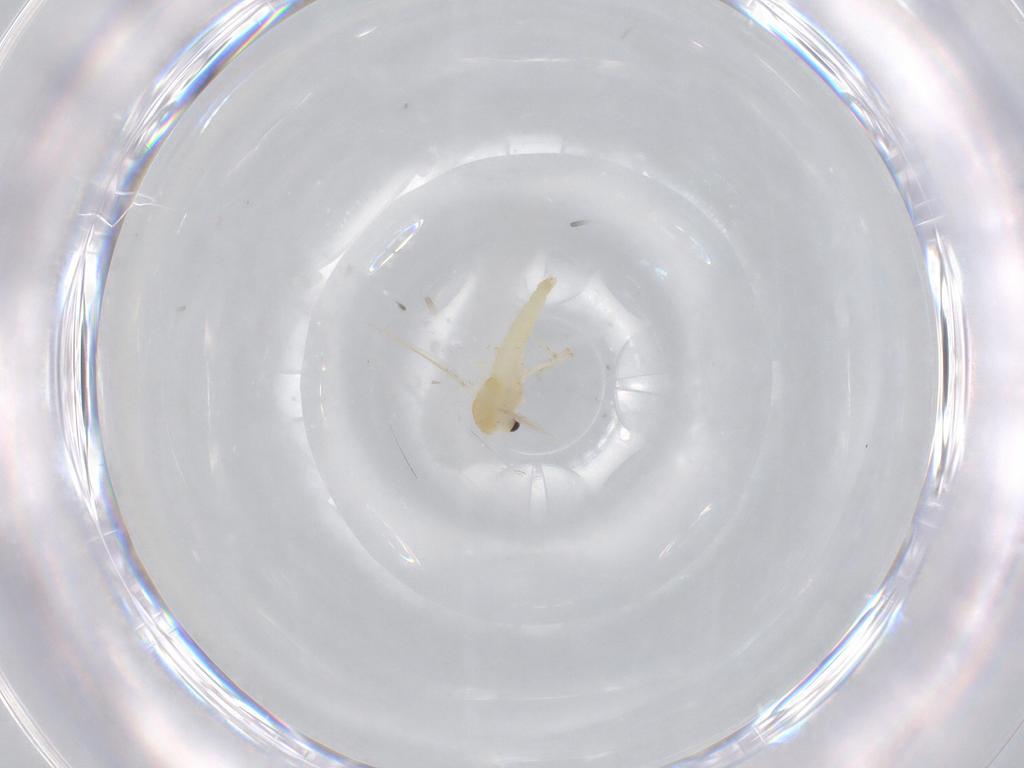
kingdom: Animalia
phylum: Arthropoda
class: Insecta
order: Diptera
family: Chironomidae
